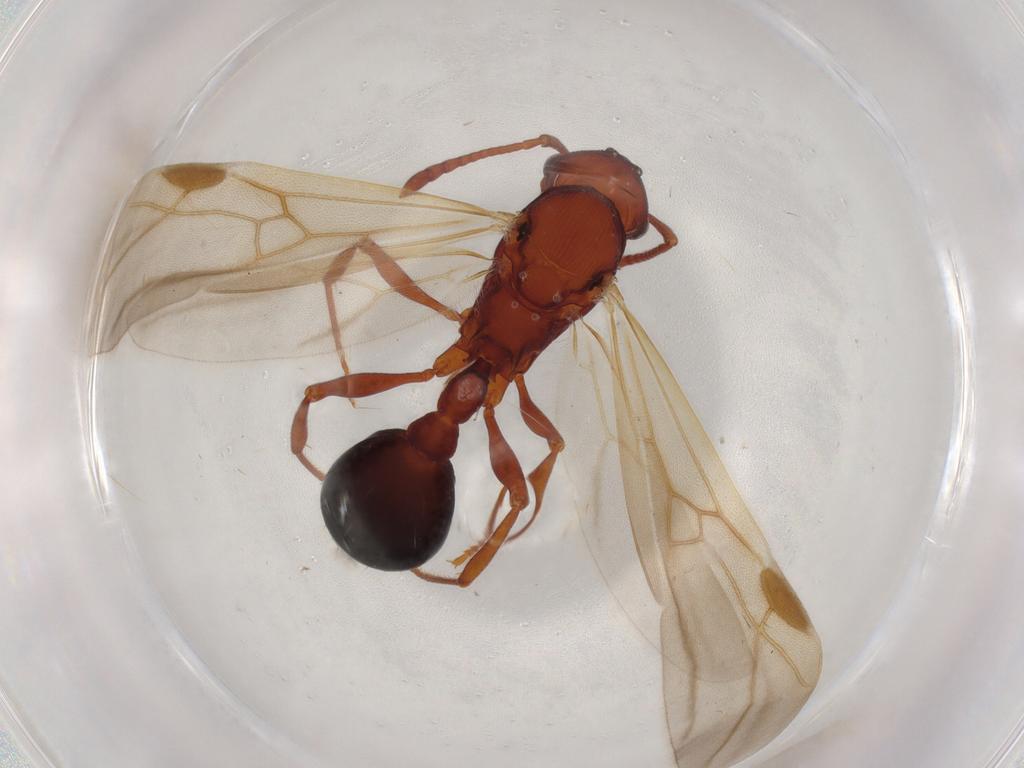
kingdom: Animalia
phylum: Arthropoda
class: Insecta
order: Hymenoptera
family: Formicidae
